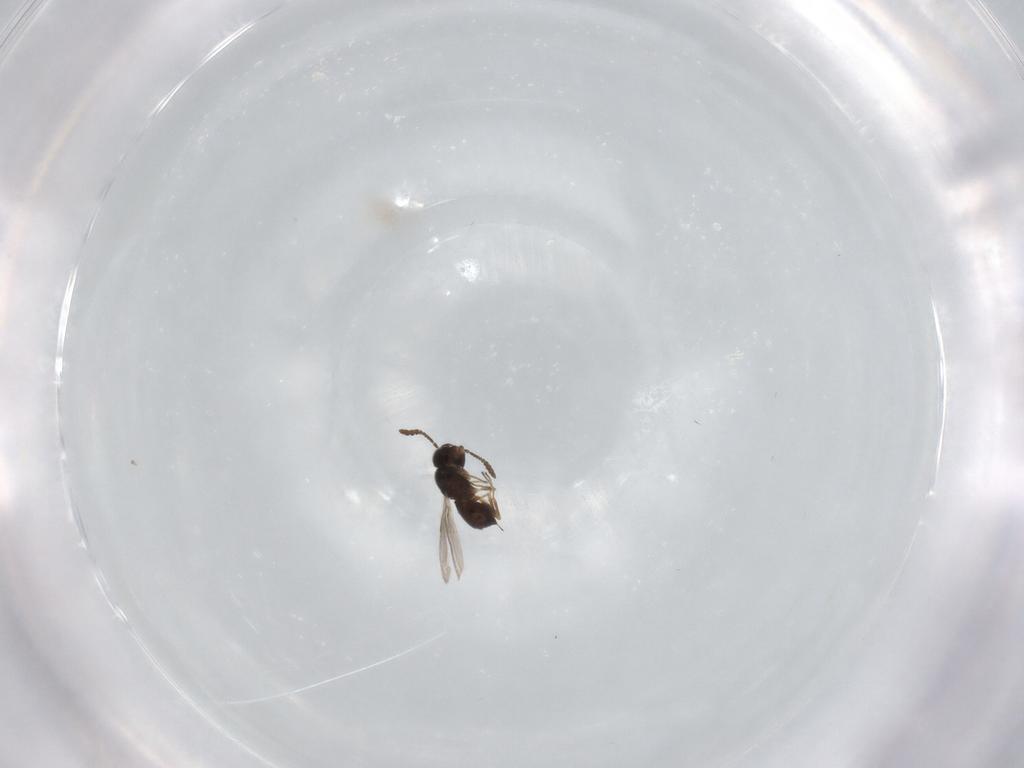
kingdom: Animalia
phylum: Arthropoda
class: Insecta
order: Hymenoptera
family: Scelionidae
